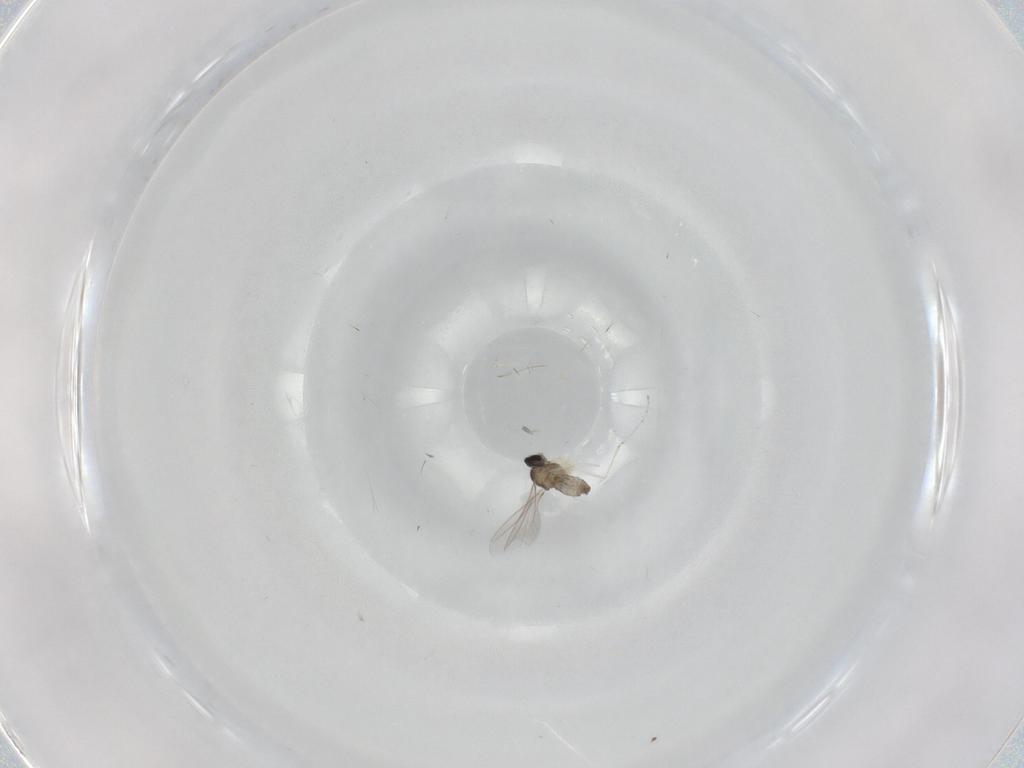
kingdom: Animalia
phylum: Arthropoda
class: Insecta
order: Diptera
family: Cecidomyiidae
